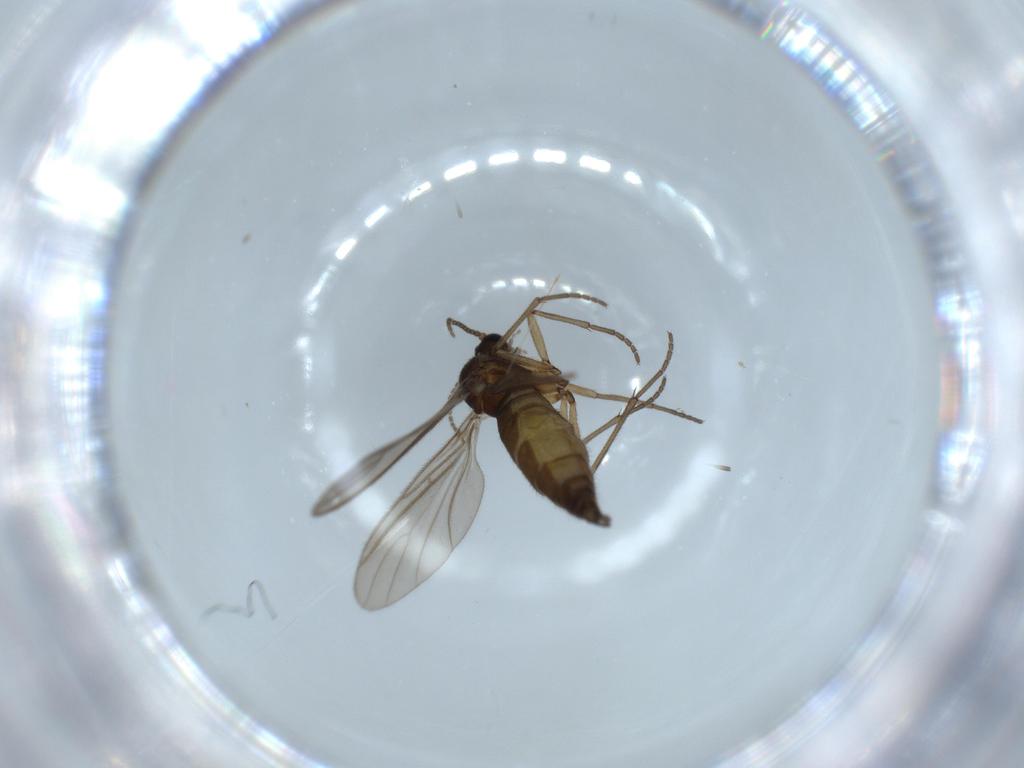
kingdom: Animalia
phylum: Arthropoda
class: Insecta
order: Diptera
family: Sciaridae
